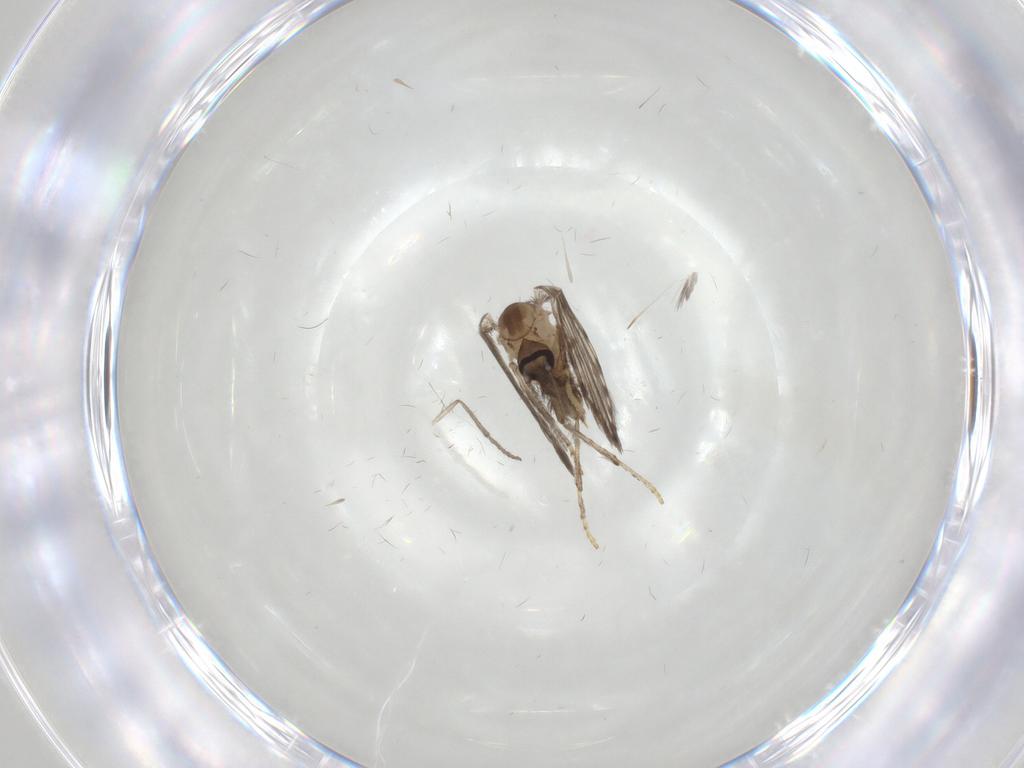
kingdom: Animalia
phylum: Arthropoda
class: Insecta
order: Diptera
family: Psychodidae
